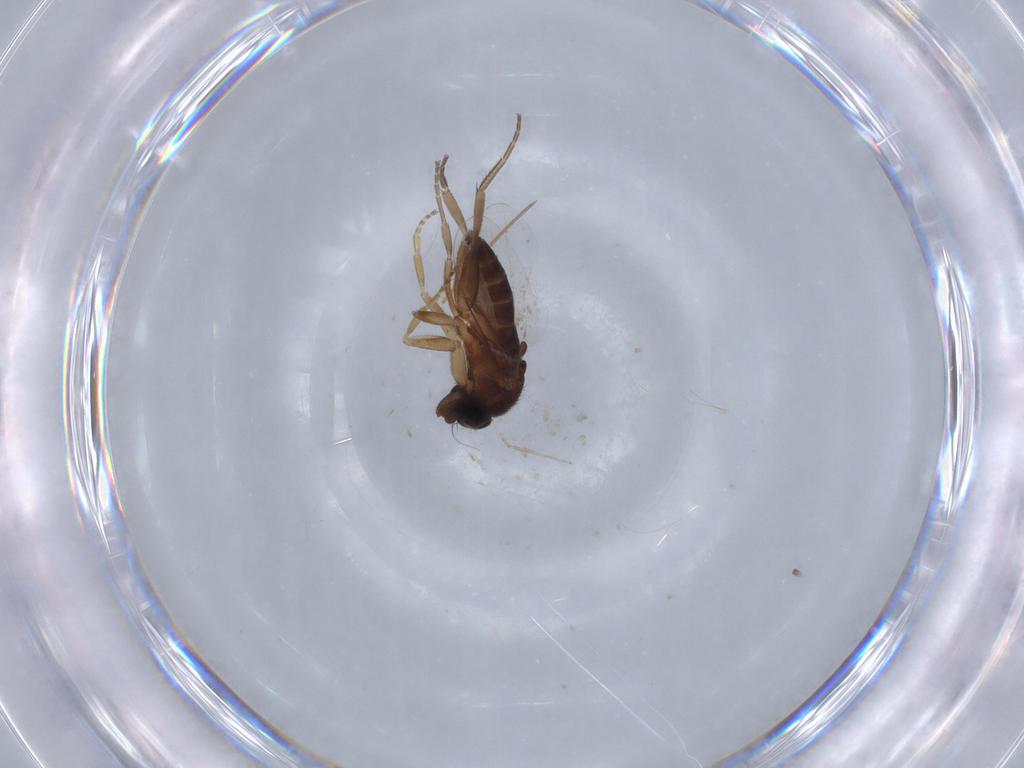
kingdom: Animalia
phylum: Arthropoda
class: Insecta
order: Diptera
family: Phoridae
